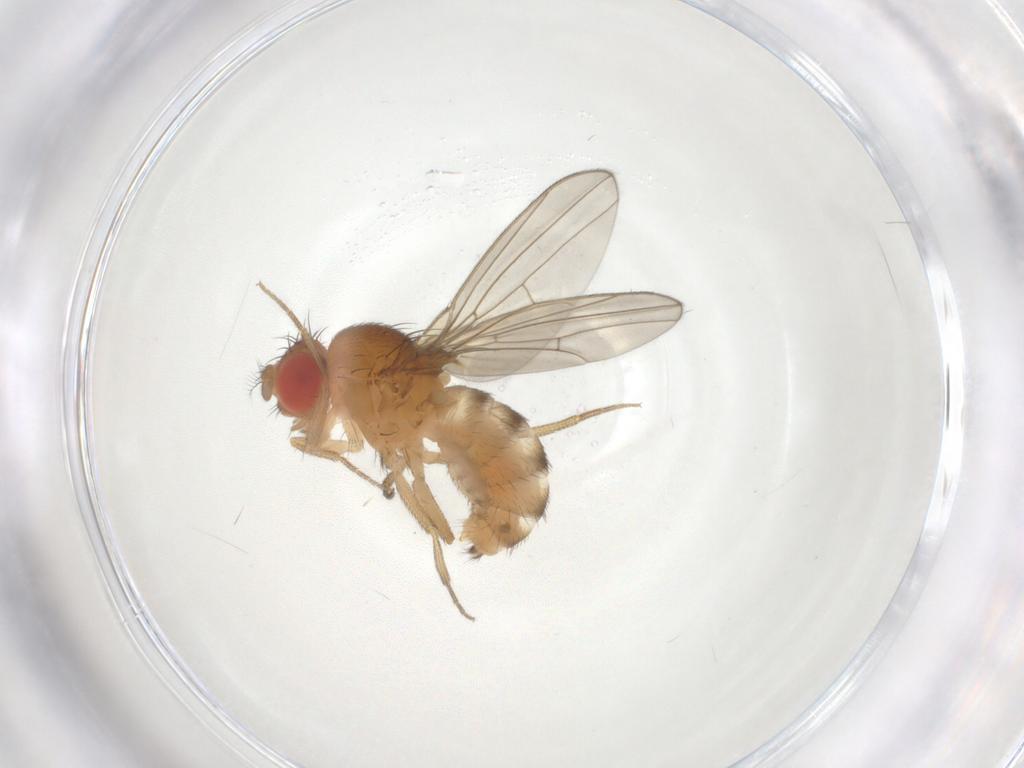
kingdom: Animalia
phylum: Arthropoda
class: Insecta
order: Diptera
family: Drosophilidae
